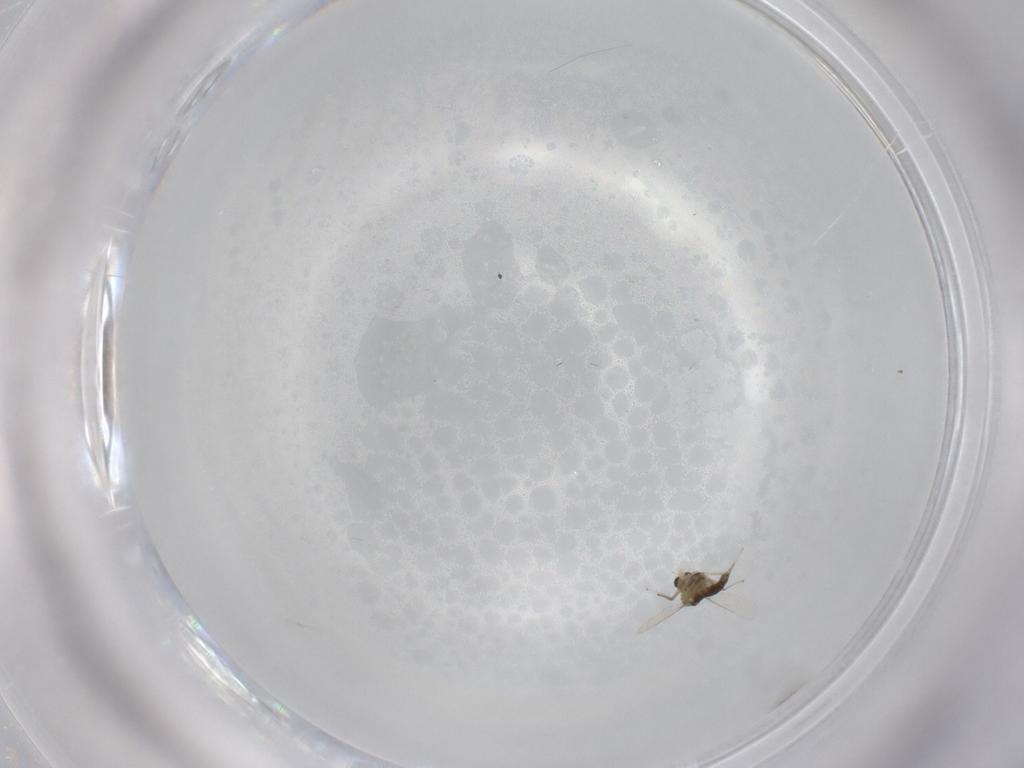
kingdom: Animalia
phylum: Arthropoda
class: Insecta
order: Diptera
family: Chironomidae
